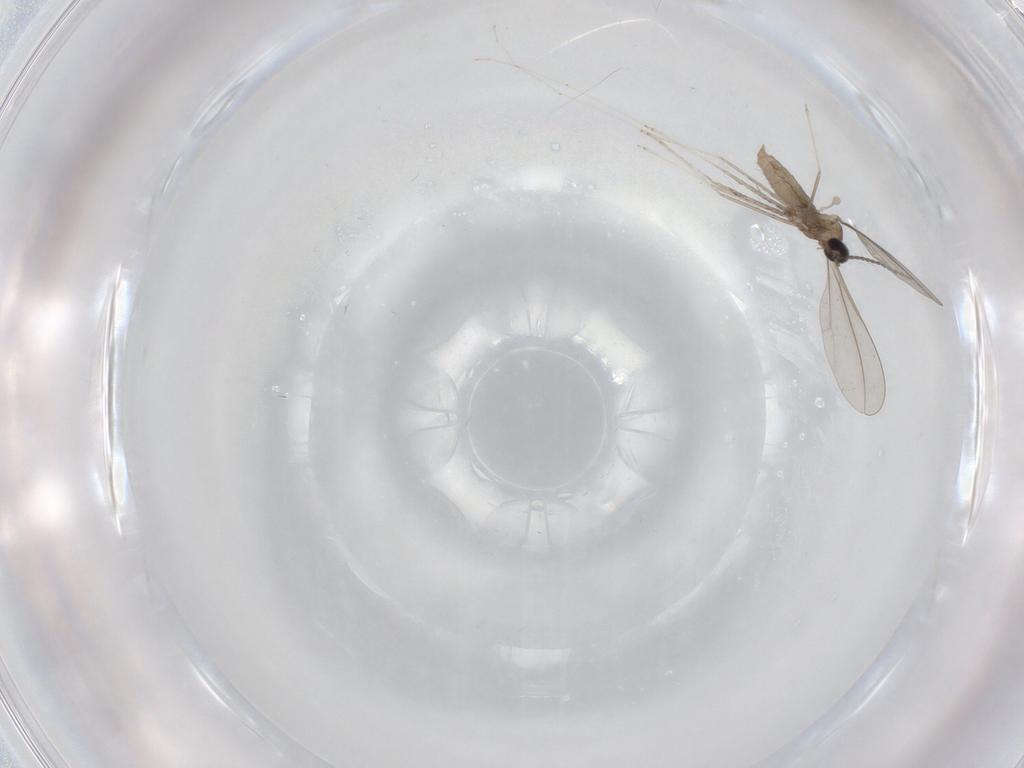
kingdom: Animalia
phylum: Arthropoda
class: Insecta
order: Diptera
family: Cecidomyiidae
